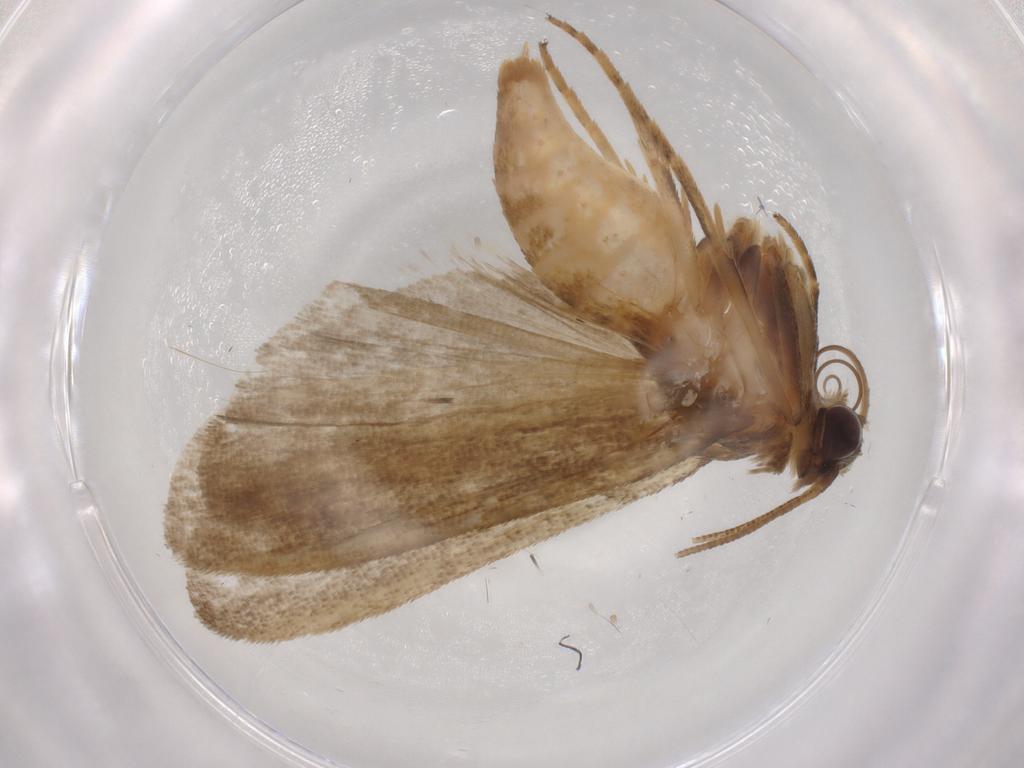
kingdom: Animalia
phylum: Arthropoda
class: Insecta
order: Lepidoptera
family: Noctuidae
